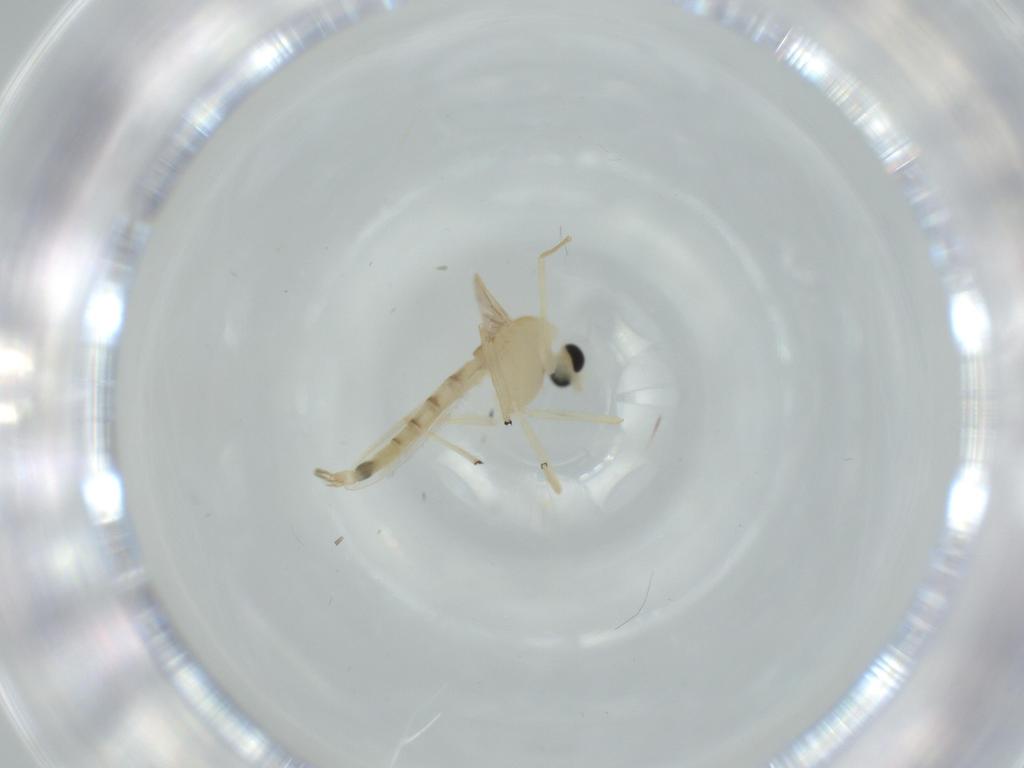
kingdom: Animalia
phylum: Arthropoda
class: Insecta
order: Diptera
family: Chironomidae
